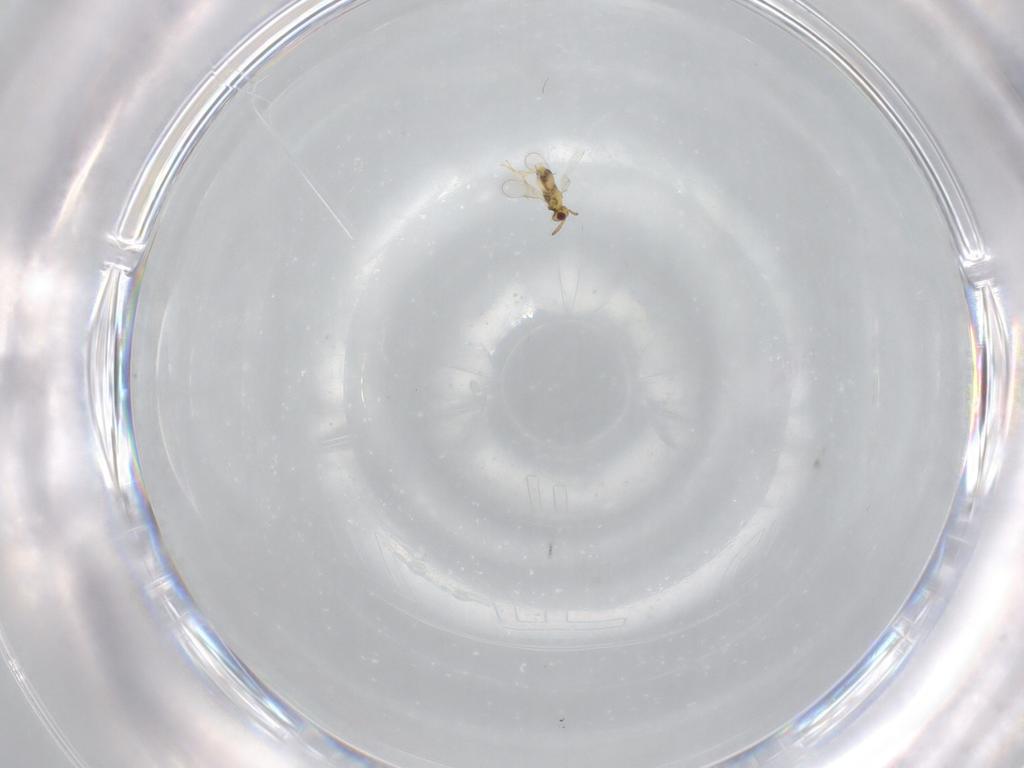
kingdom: Animalia
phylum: Arthropoda
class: Insecta
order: Hymenoptera
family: Aphelinidae
